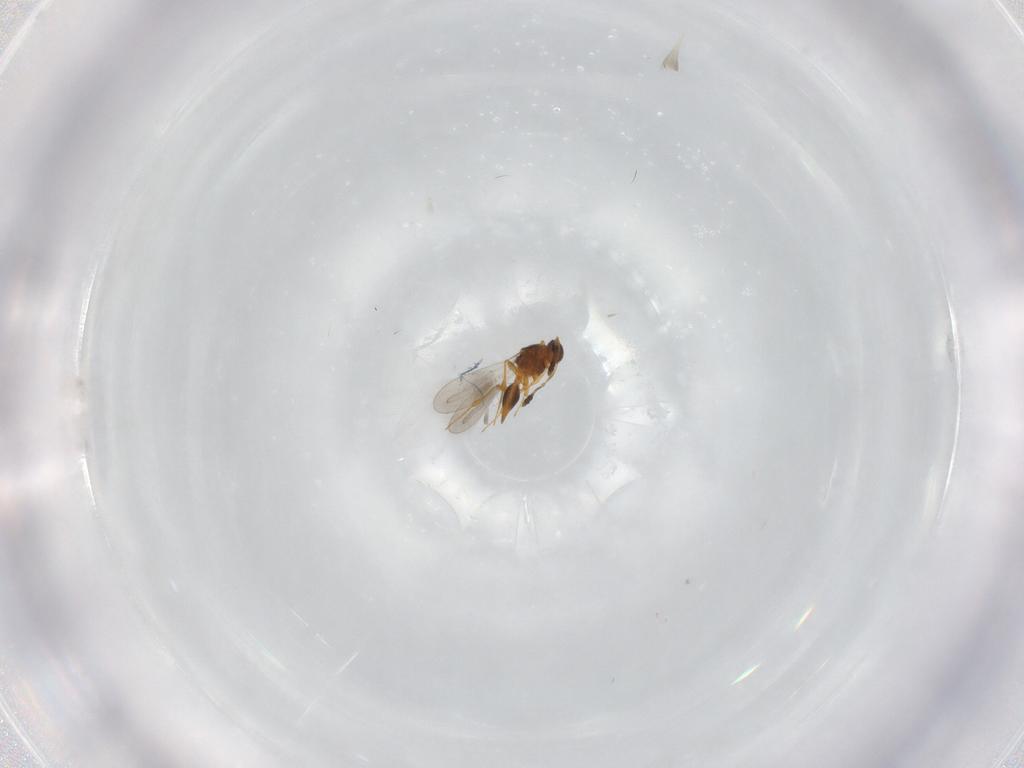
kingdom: Animalia
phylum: Arthropoda
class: Insecta
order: Hymenoptera
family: Platygastridae
